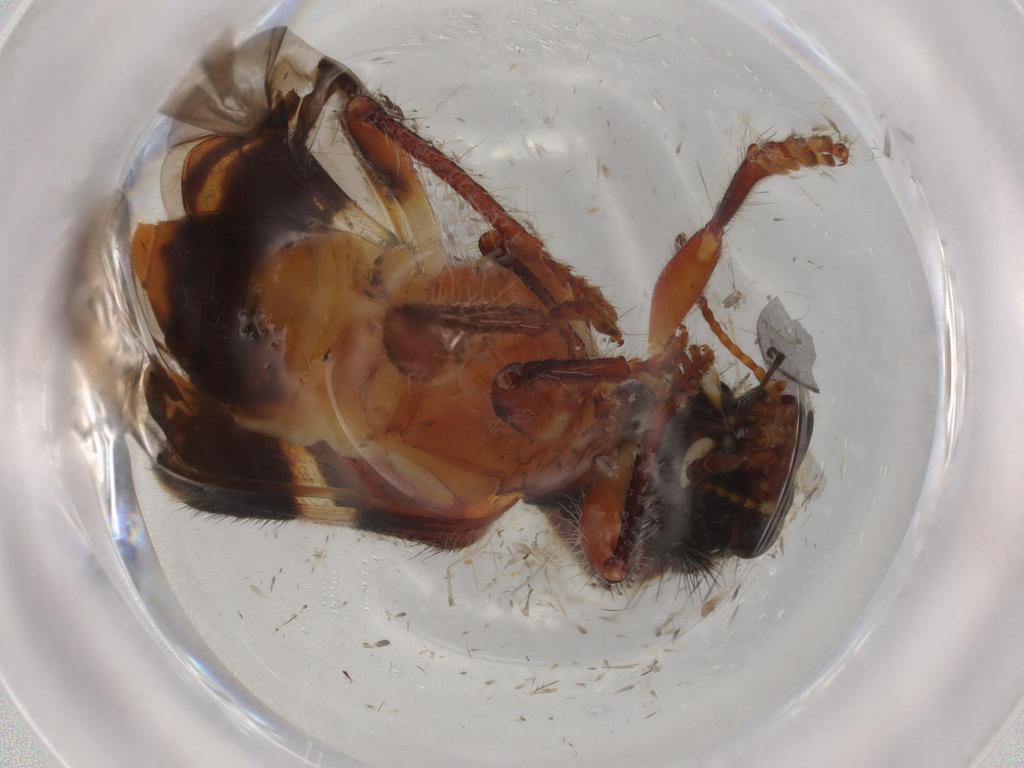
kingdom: Animalia
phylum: Arthropoda
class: Insecta
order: Coleoptera
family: Chrysomelidae
